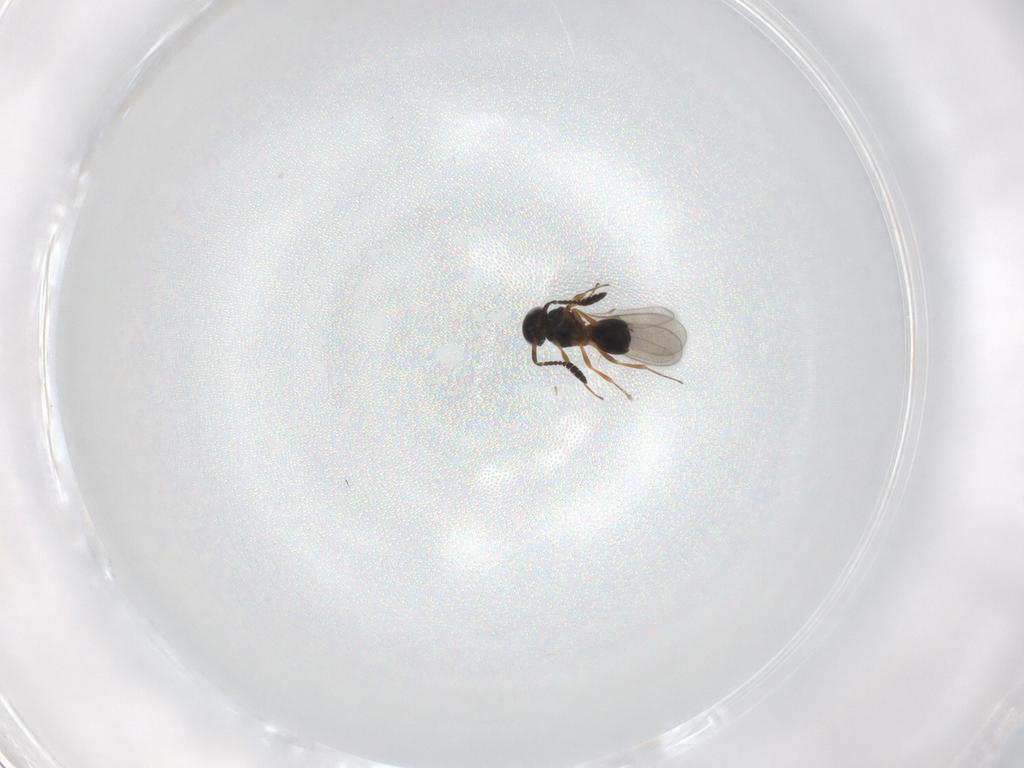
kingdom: Animalia
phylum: Arthropoda
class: Insecta
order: Hymenoptera
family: Scelionidae
